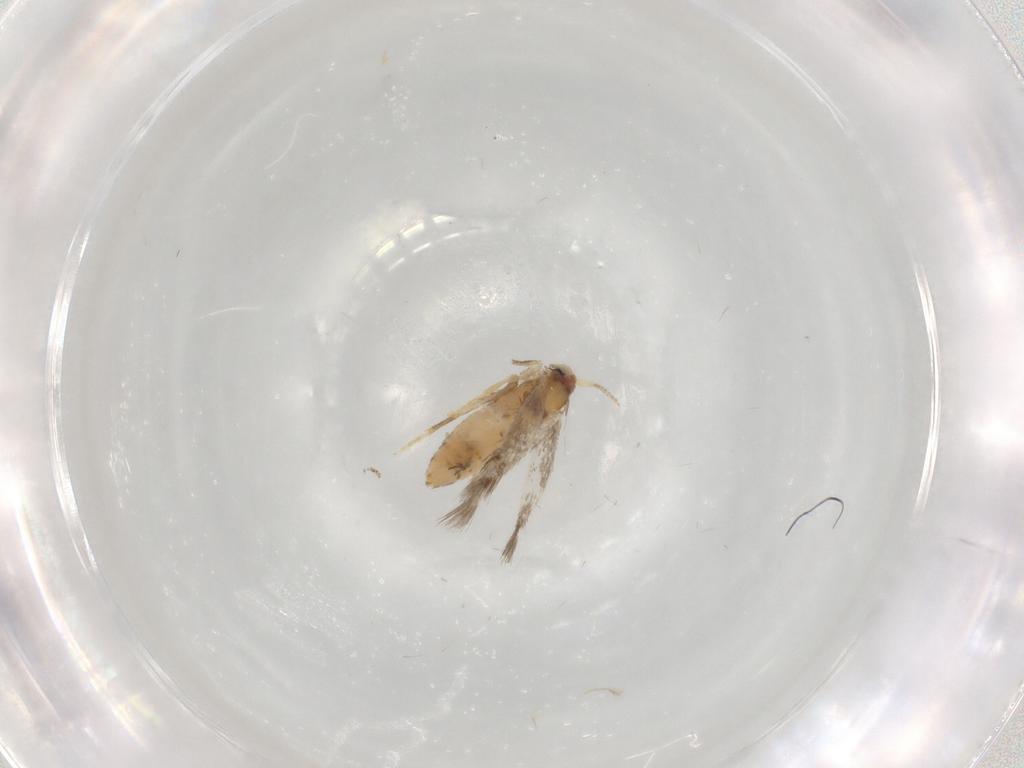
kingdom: Animalia
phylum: Arthropoda
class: Insecta
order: Lepidoptera
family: Nepticulidae
